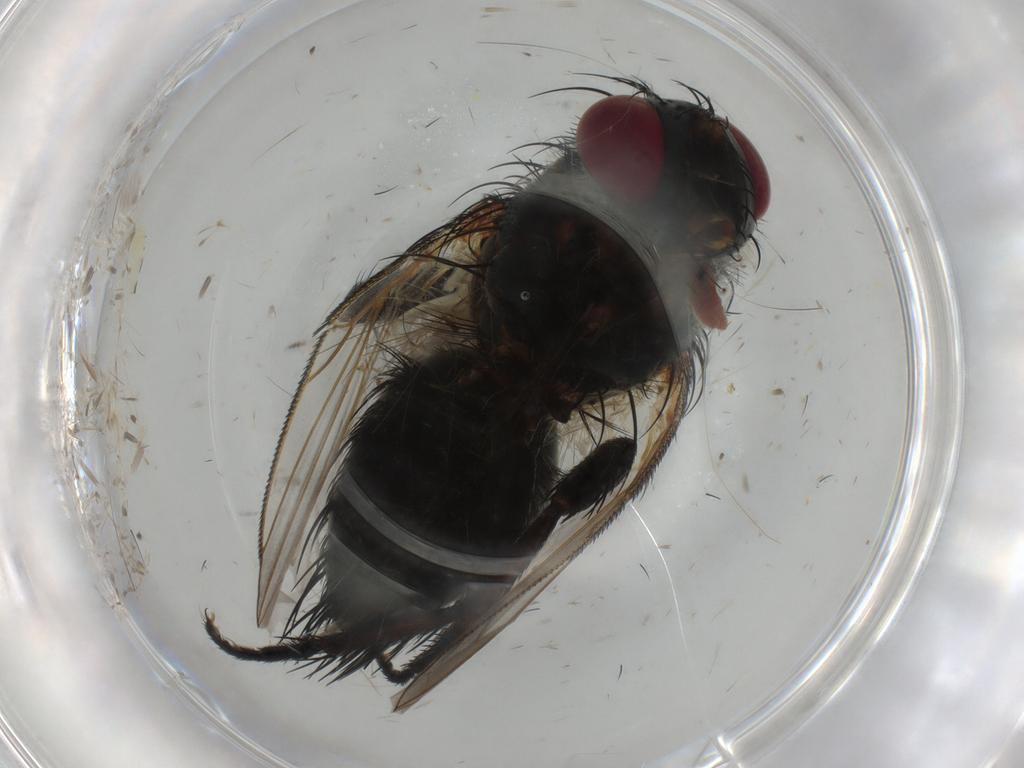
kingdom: Animalia
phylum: Arthropoda
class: Insecta
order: Diptera
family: Tachinidae
